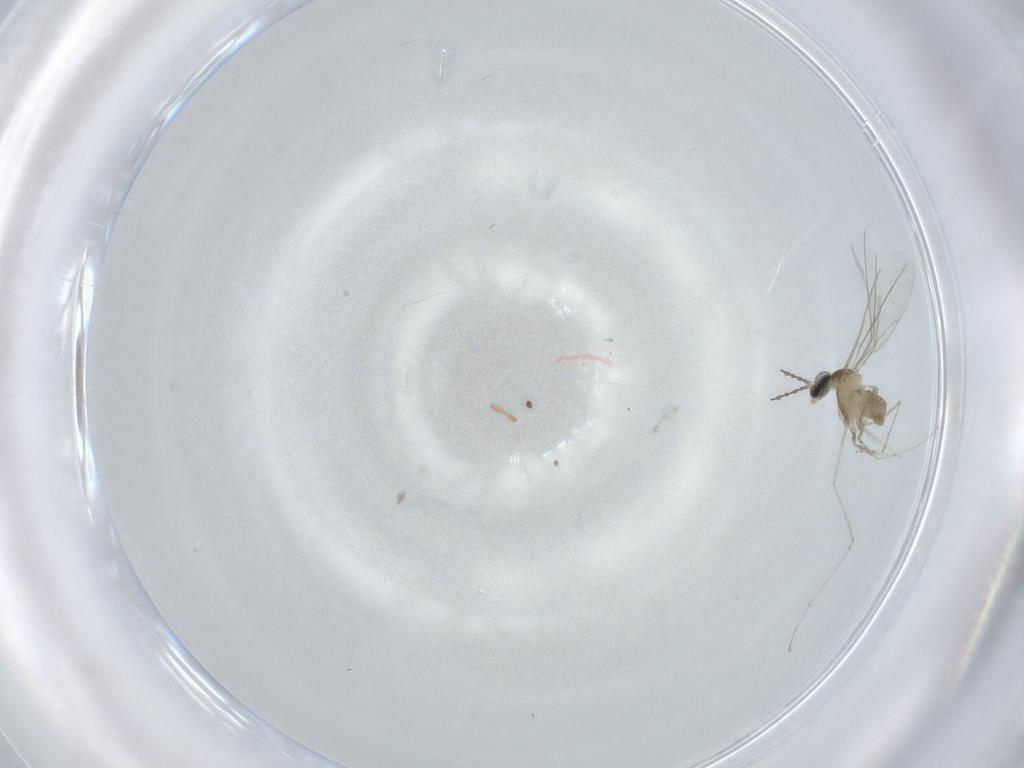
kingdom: Animalia
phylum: Arthropoda
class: Insecta
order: Diptera
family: Cecidomyiidae
